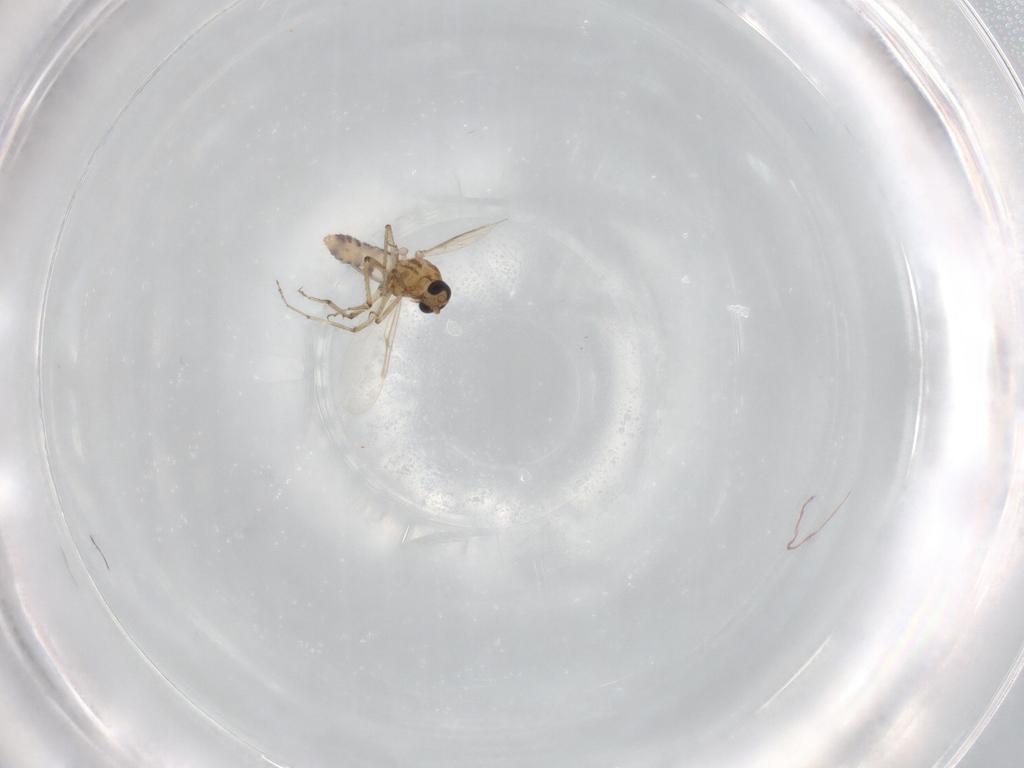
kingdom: Animalia
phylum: Arthropoda
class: Insecta
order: Diptera
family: Ceratopogonidae
